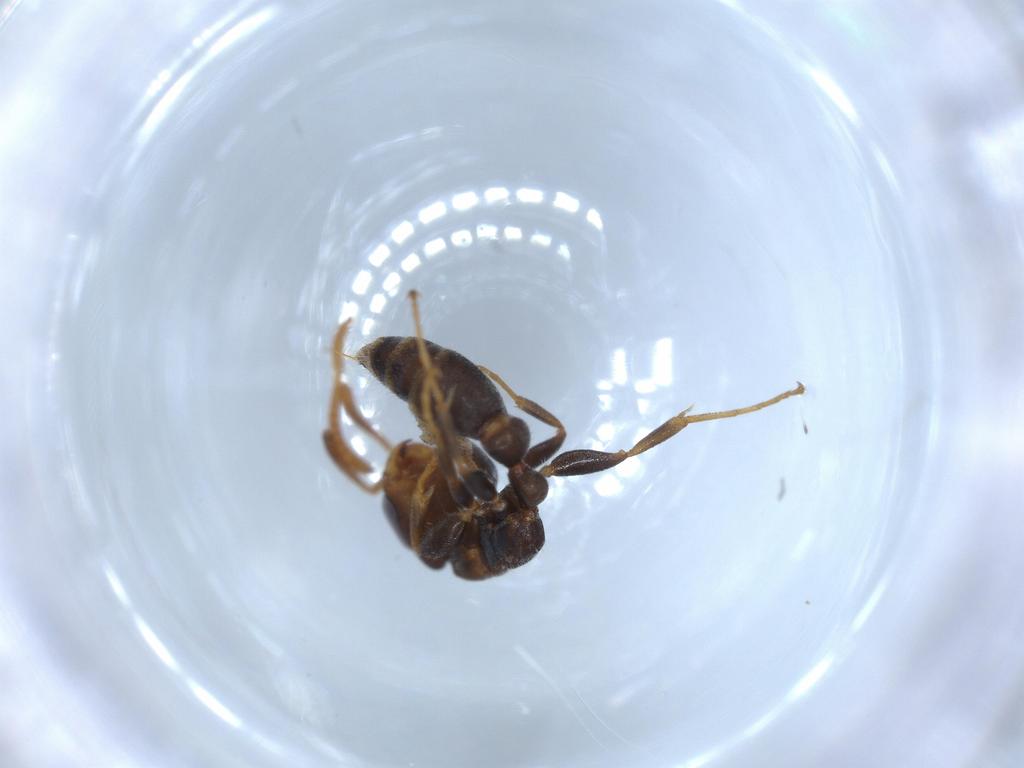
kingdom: Animalia
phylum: Arthropoda
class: Insecta
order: Hymenoptera
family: Formicidae
